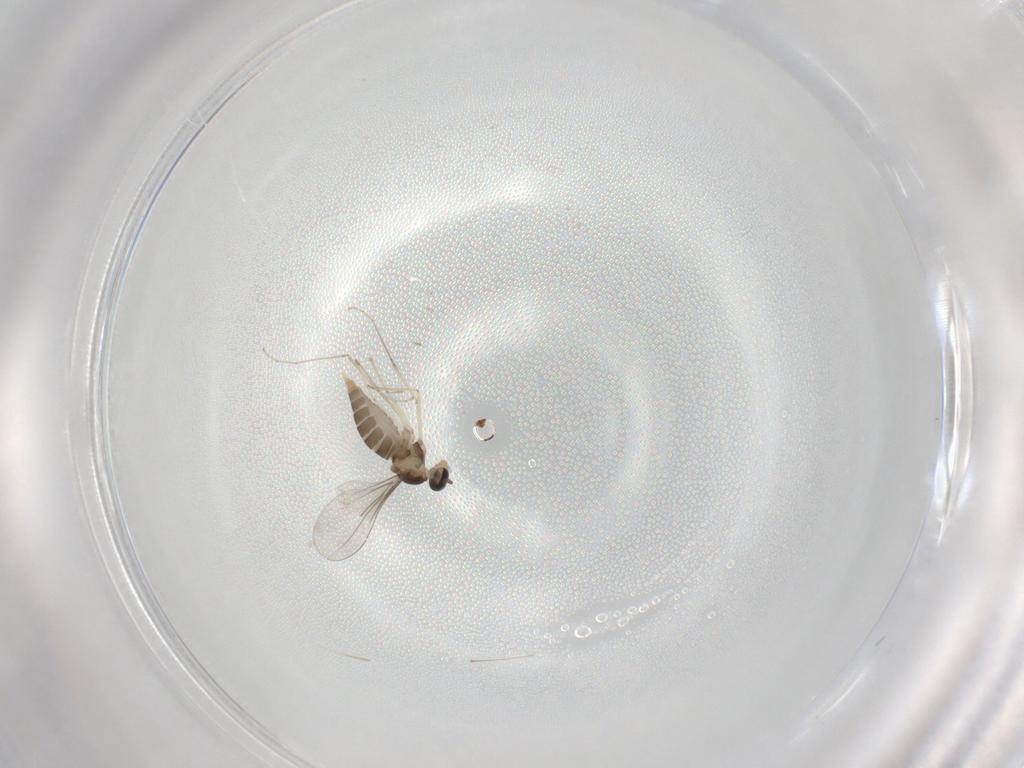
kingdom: Animalia
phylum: Arthropoda
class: Insecta
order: Diptera
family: Cecidomyiidae
